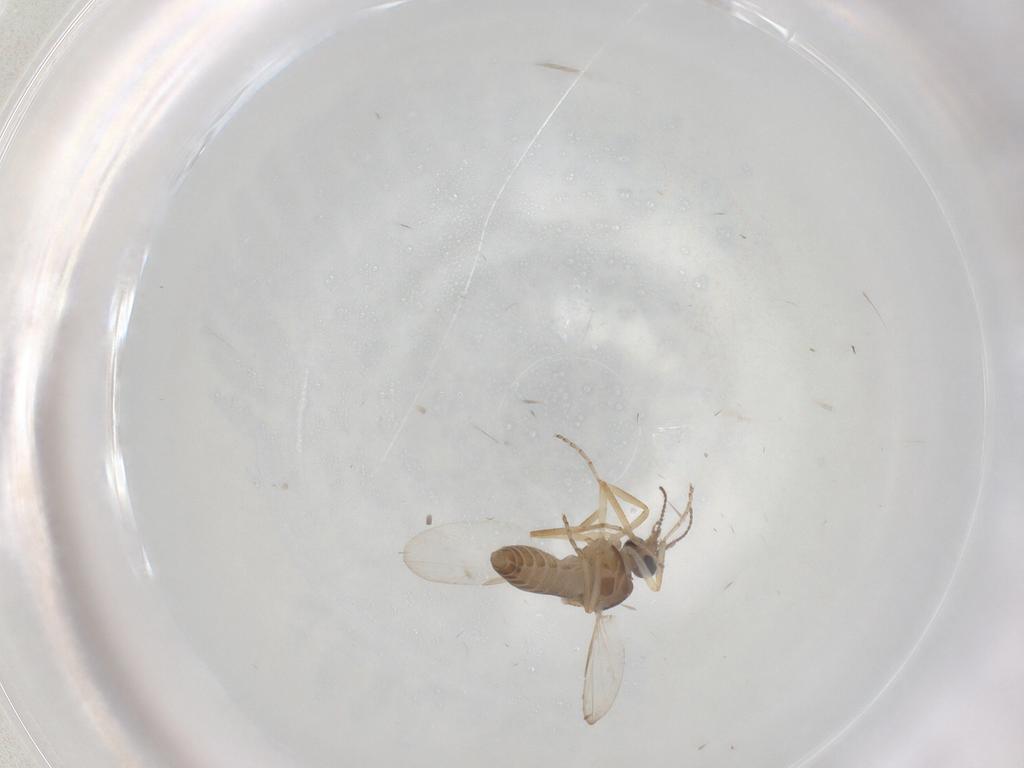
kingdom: Animalia
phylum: Arthropoda
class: Insecta
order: Diptera
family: Ceratopogonidae
